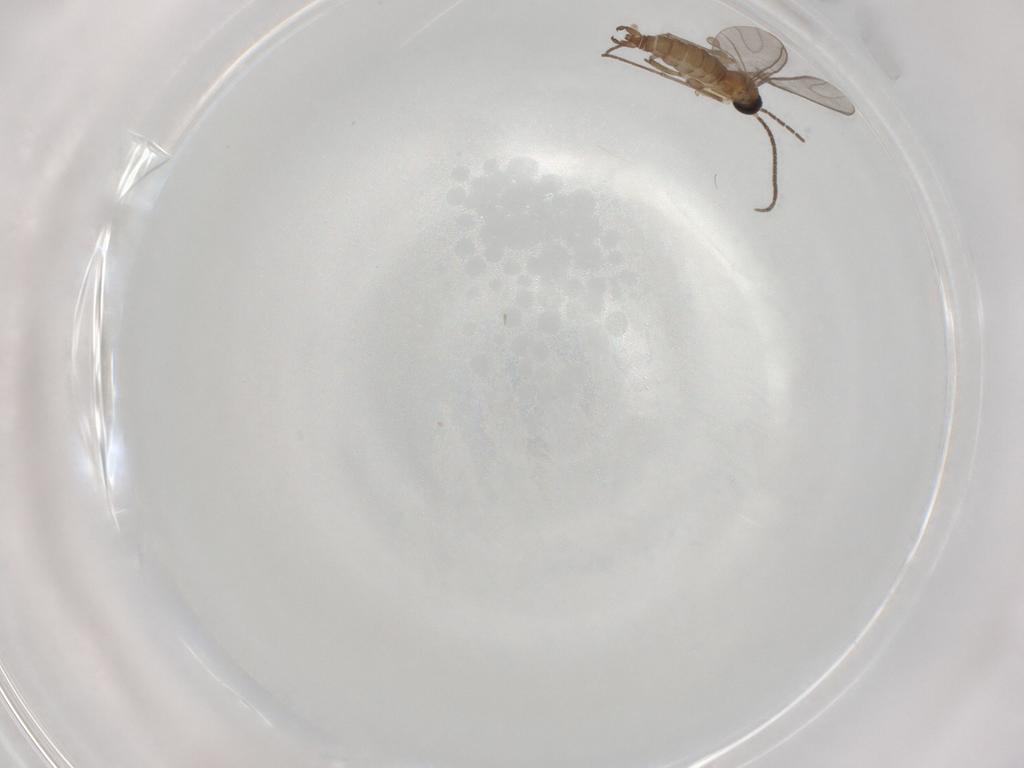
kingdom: Animalia
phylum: Arthropoda
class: Insecta
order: Diptera
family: Sciaridae
